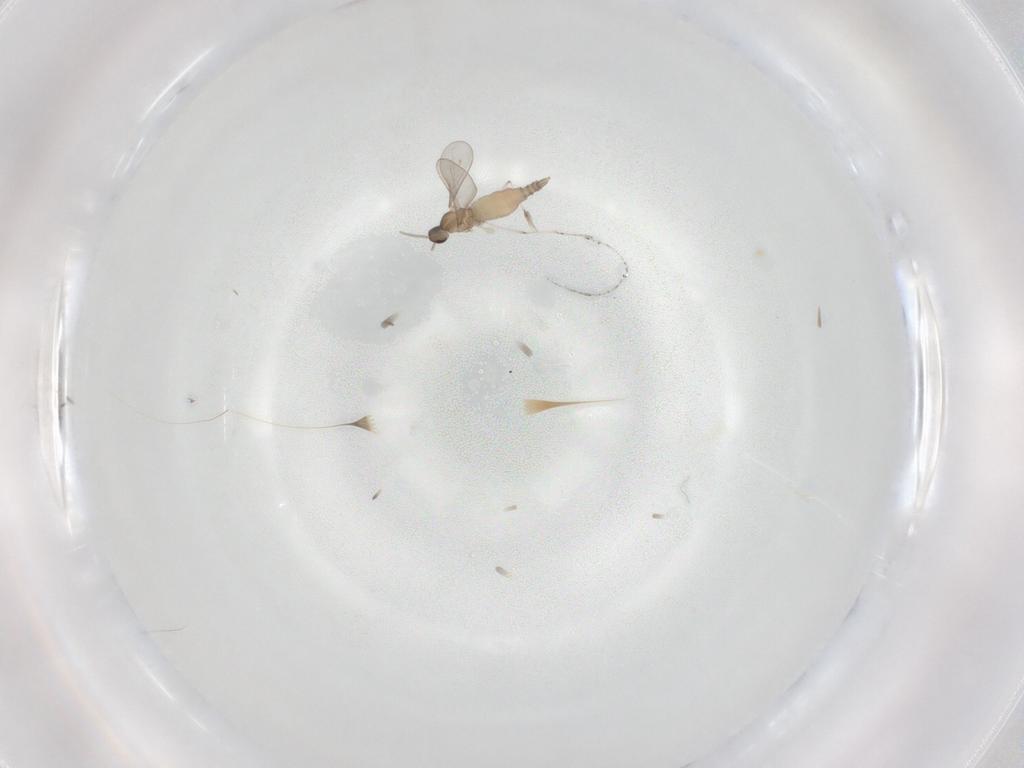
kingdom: Animalia
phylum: Arthropoda
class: Insecta
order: Diptera
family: Cecidomyiidae
